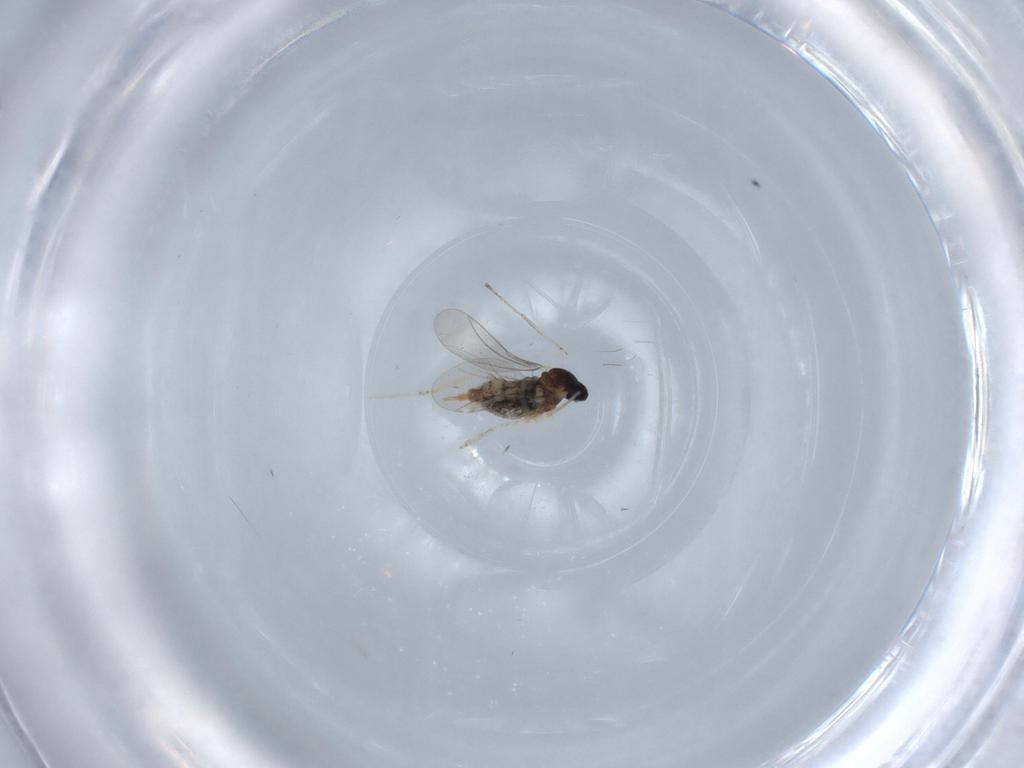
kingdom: Animalia
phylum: Arthropoda
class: Insecta
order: Diptera
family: Cecidomyiidae
